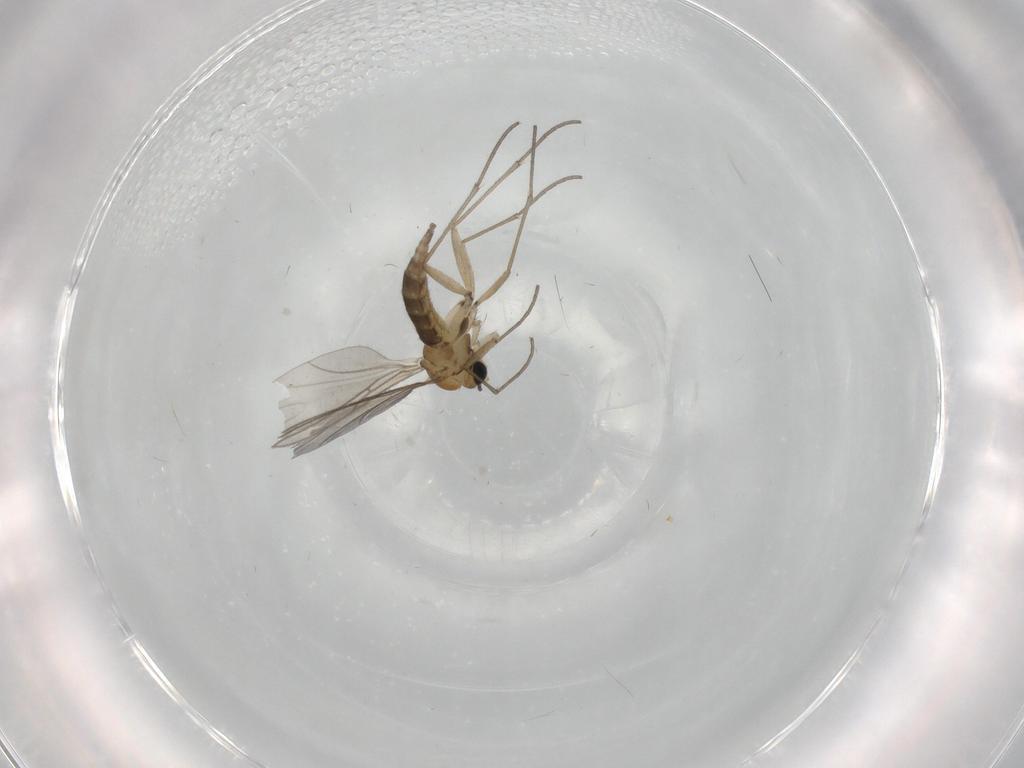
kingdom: Animalia
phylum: Arthropoda
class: Insecta
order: Diptera
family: Sciaridae
